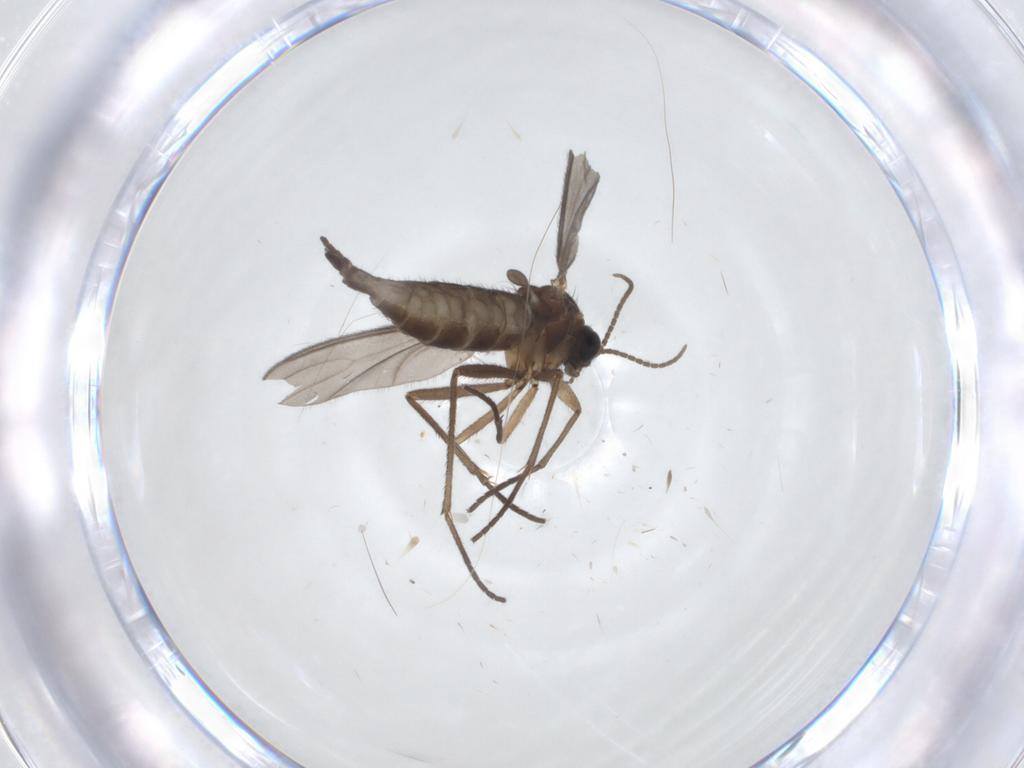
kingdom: Animalia
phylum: Arthropoda
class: Insecta
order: Diptera
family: Sciaridae
